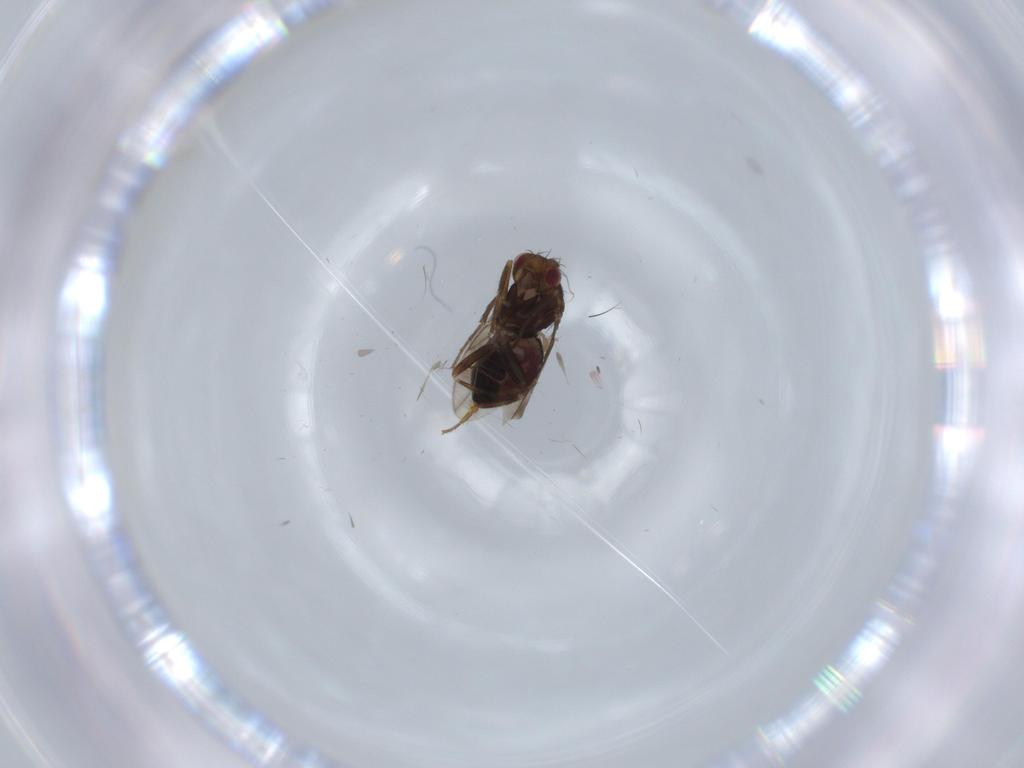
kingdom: Animalia
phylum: Arthropoda
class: Insecta
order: Diptera
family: Sphaeroceridae
